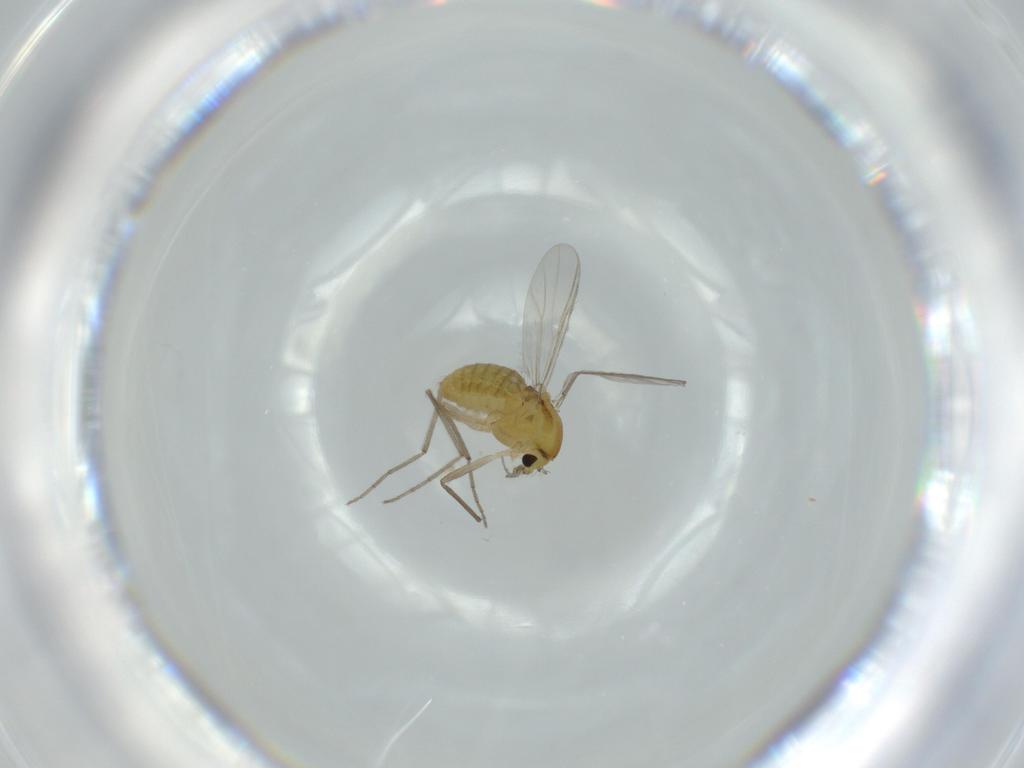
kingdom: Animalia
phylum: Arthropoda
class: Insecta
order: Diptera
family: Chironomidae
